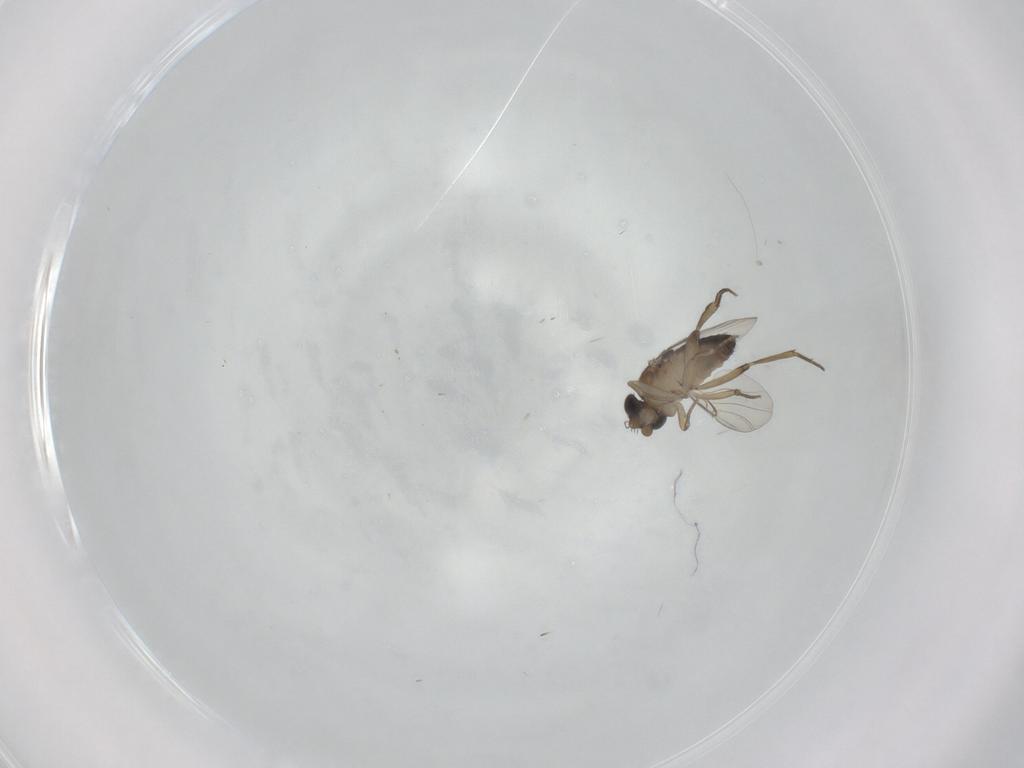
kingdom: Animalia
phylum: Arthropoda
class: Insecta
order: Diptera
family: Phoridae
